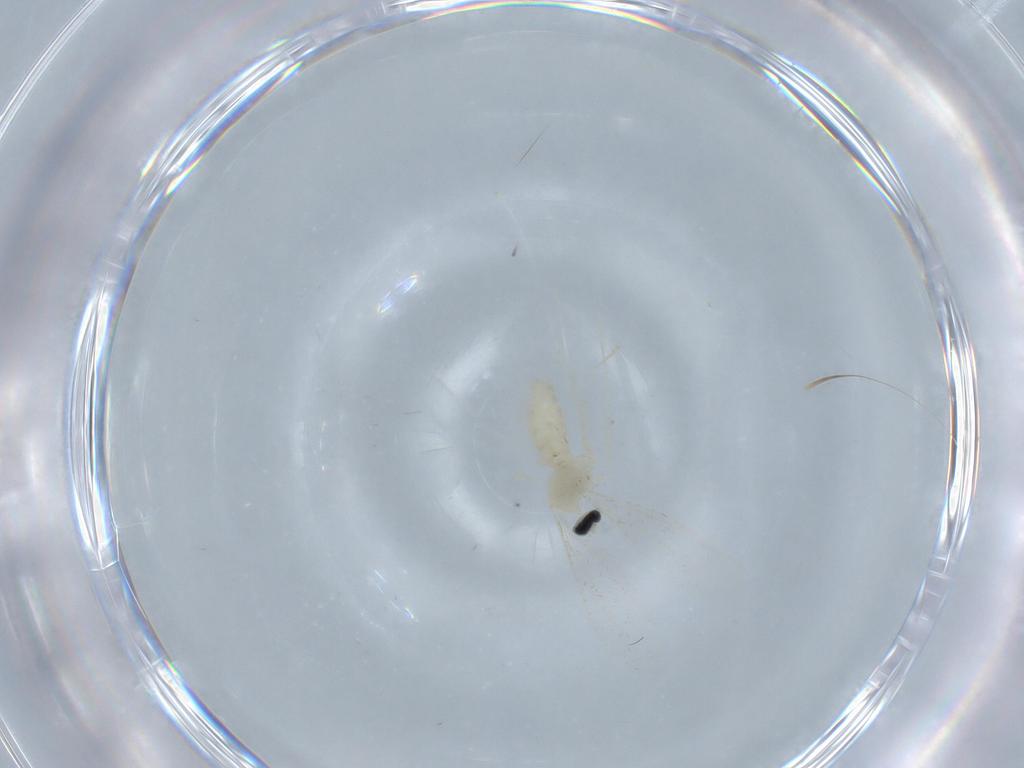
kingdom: Animalia
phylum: Arthropoda
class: Insecta
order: Diptera
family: Cecidomyiidae
